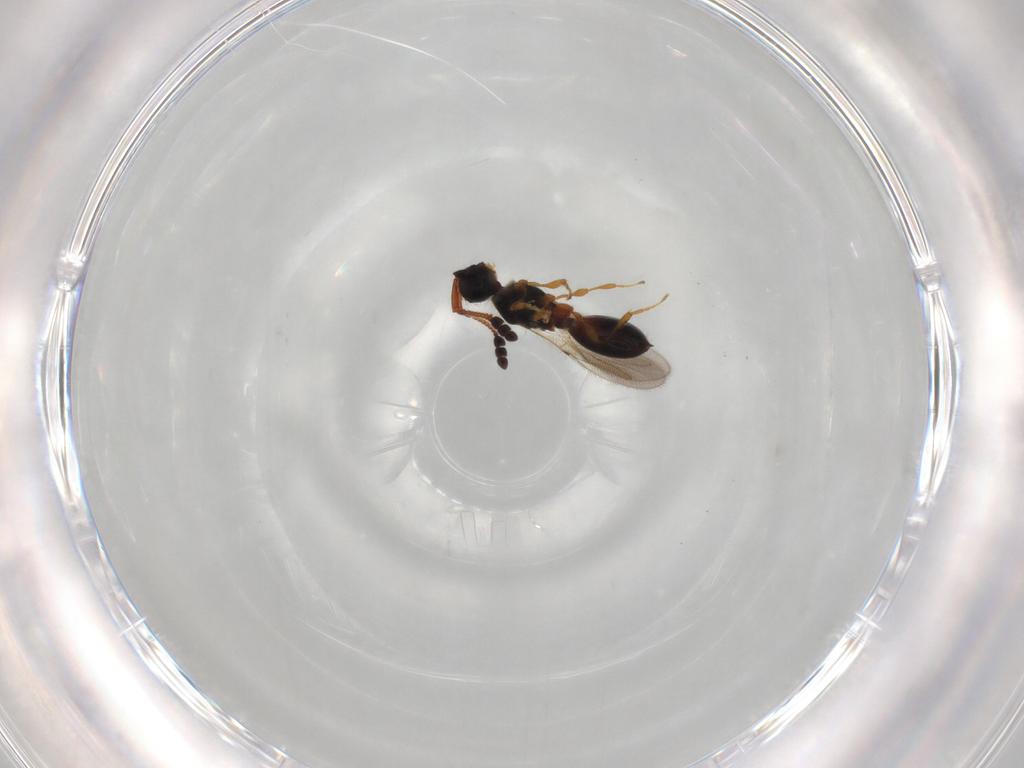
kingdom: Animalia
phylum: Arthropoda
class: Insecta
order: Hymenoptera
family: Diapriidae
